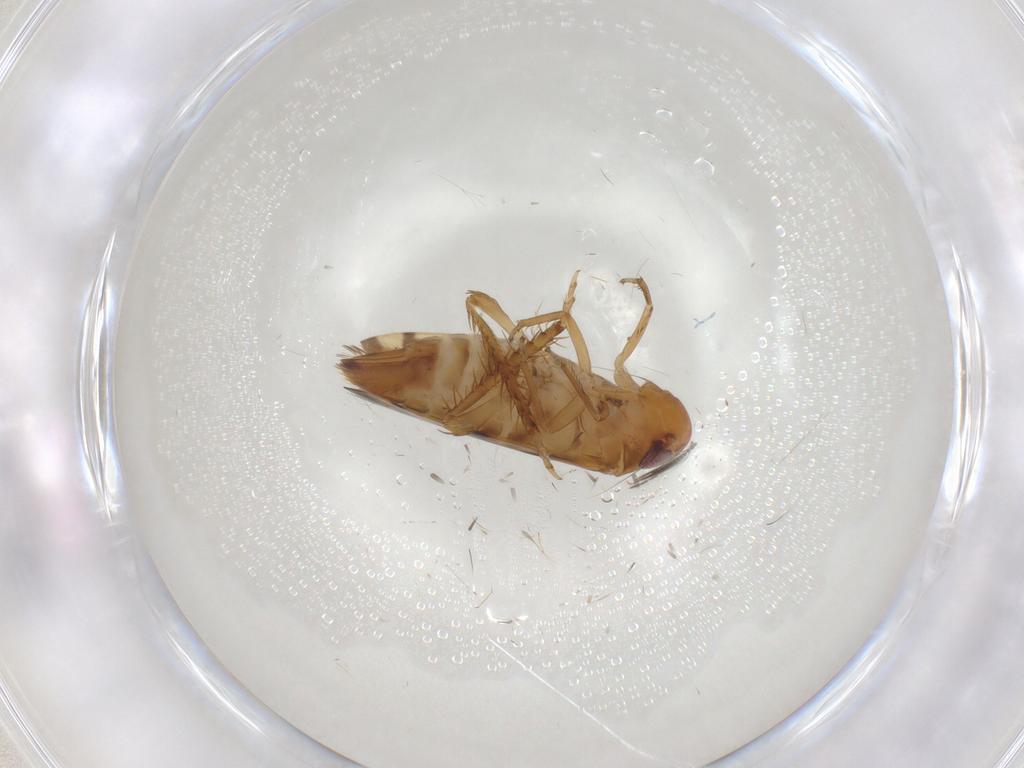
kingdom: Animalia
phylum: Arthropoda
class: Insecta
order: Hemiptera
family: Cicadellidae
